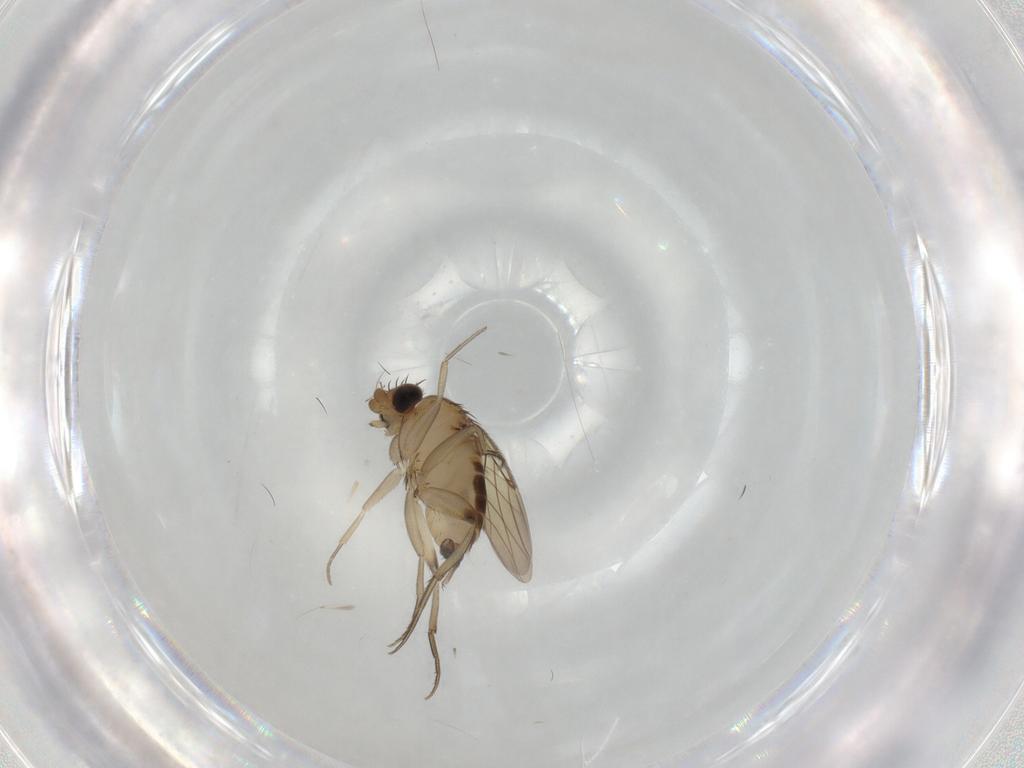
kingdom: Animalia
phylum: Arthropoda
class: Insecta
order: Diptera
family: Phoridae
